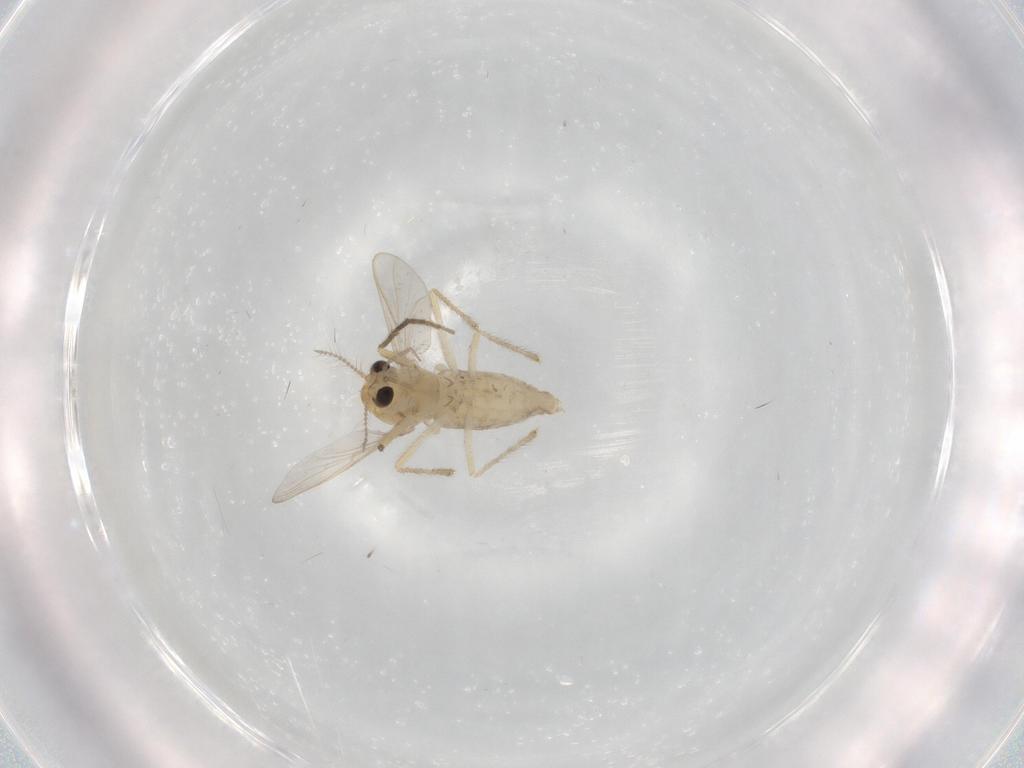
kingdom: Animalia
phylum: Arthropoda
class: Insecta
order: Diptera
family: Chironomidae
